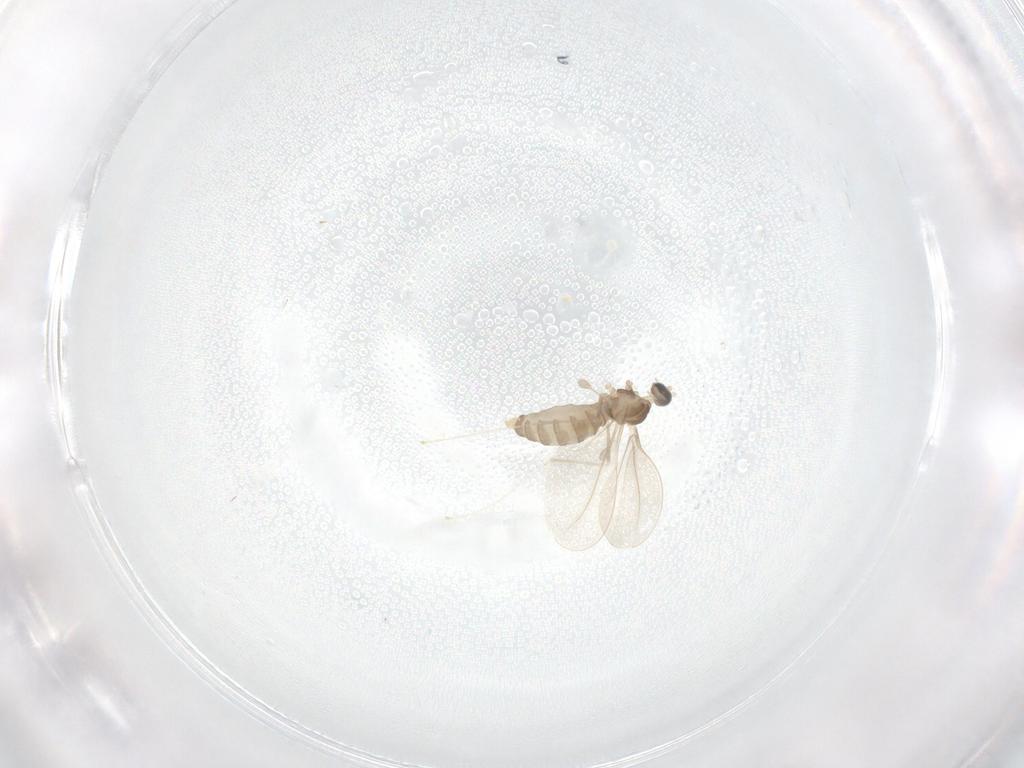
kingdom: Animalia
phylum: Arthropoda
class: Insecta
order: Diptera
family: Cecidomyiidae
